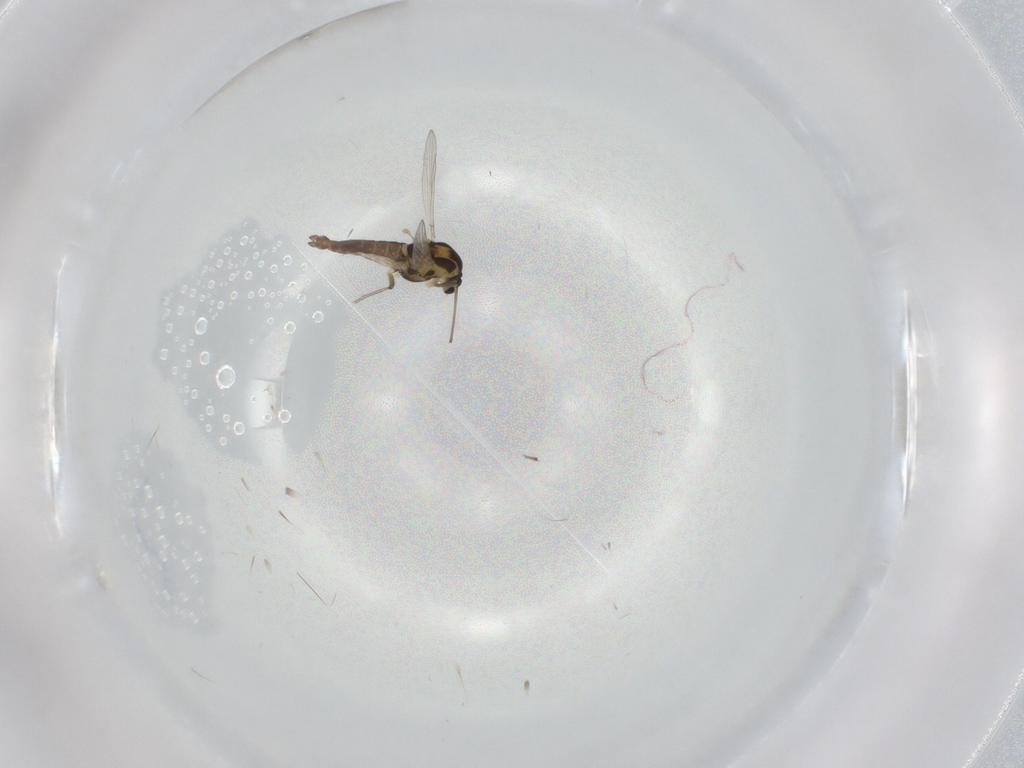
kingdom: Animalia
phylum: Arthropoda
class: Insecta
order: Diptera
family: Chironomidae
